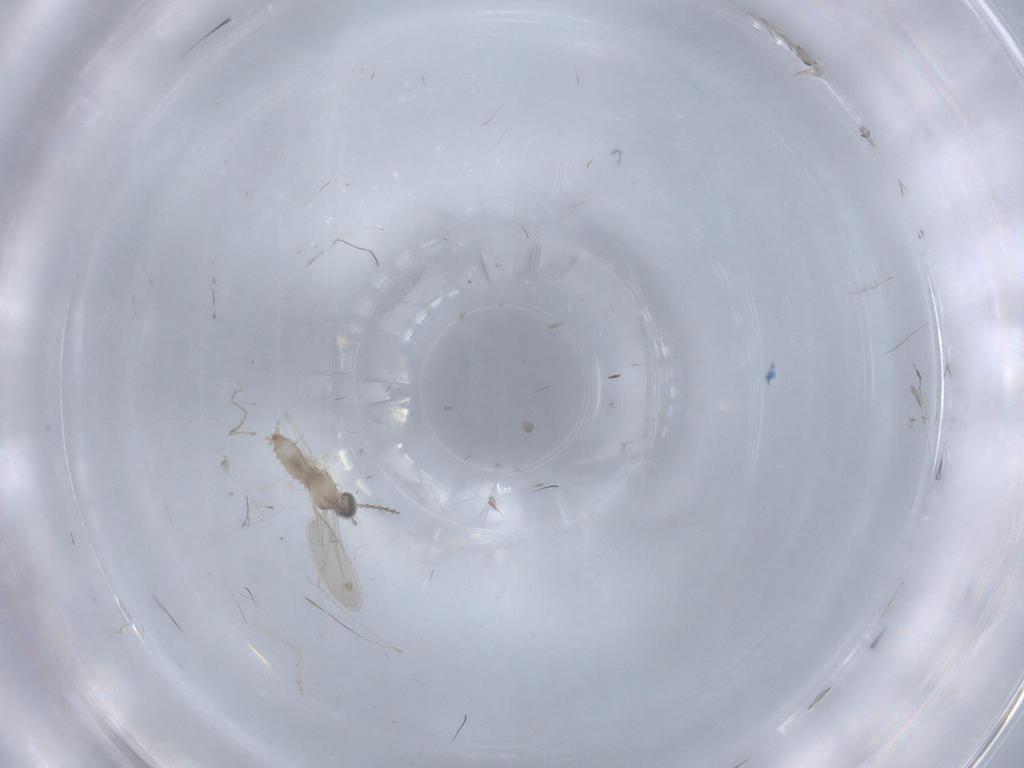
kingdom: Animalia
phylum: Arthropoda
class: Insecta
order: Diptera
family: Cecidomyiidae
